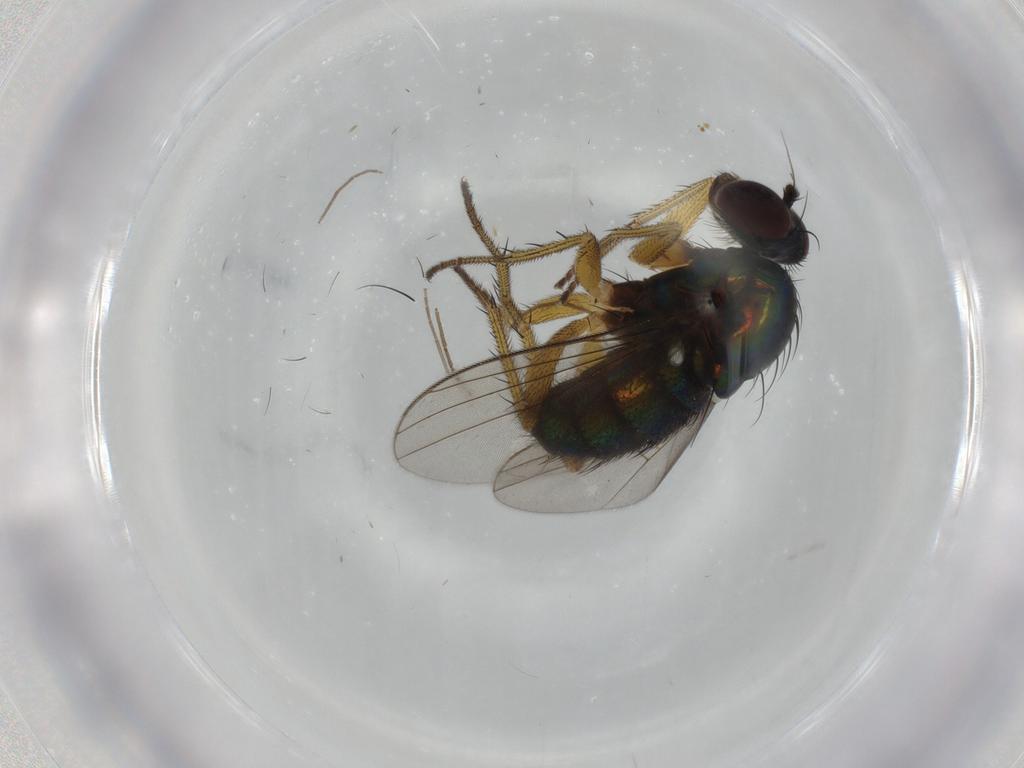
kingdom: Animalia
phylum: Arthropoda
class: Insecta
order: Diptera
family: Dolichopodidae
